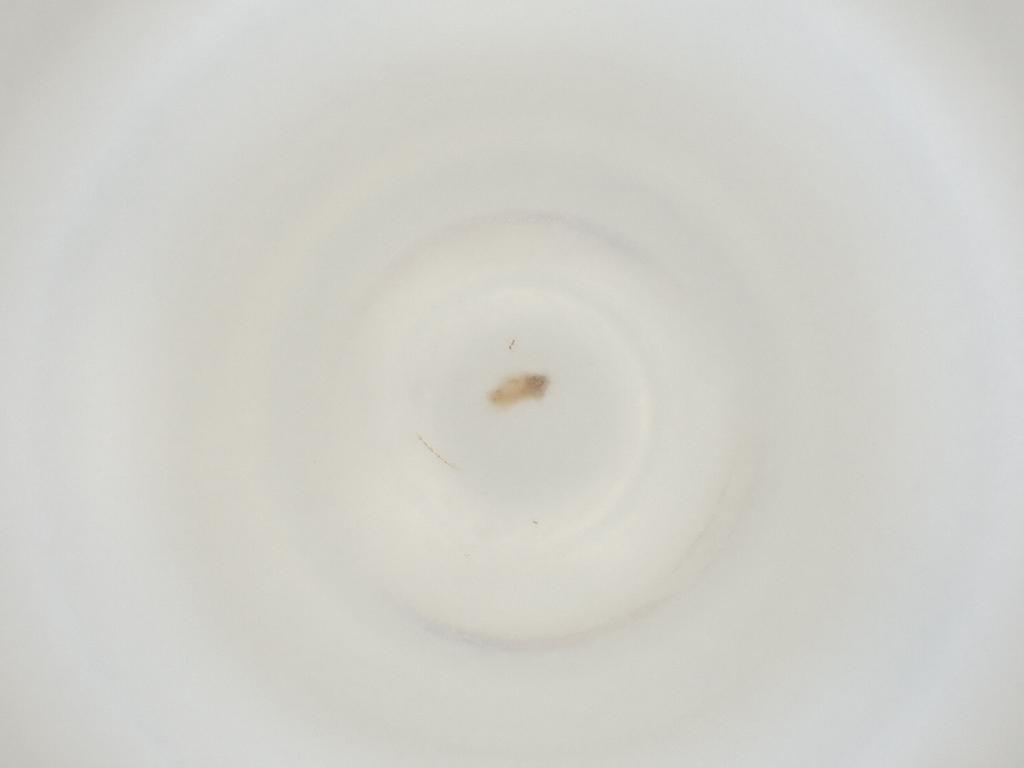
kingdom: Animalia
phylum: Arthropoda
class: Insecta
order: Diptera
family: Cecidomyiidae
